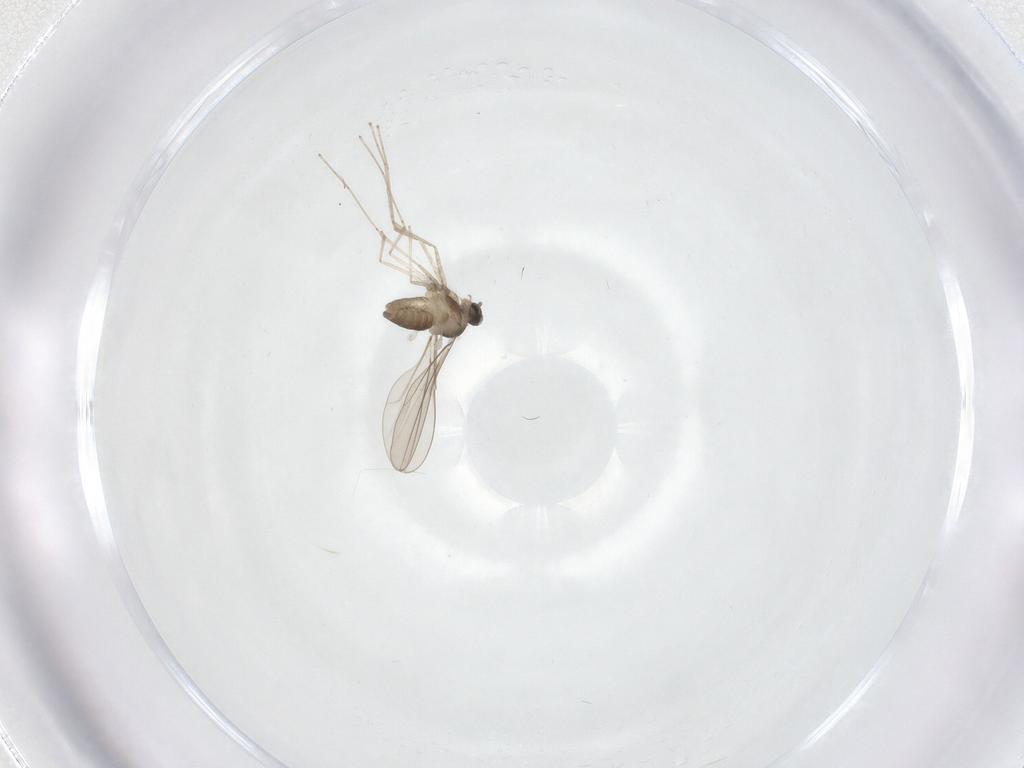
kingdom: Animalia
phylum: Arthropoda
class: Insecta
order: Diptera
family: Cecidomyiidae
